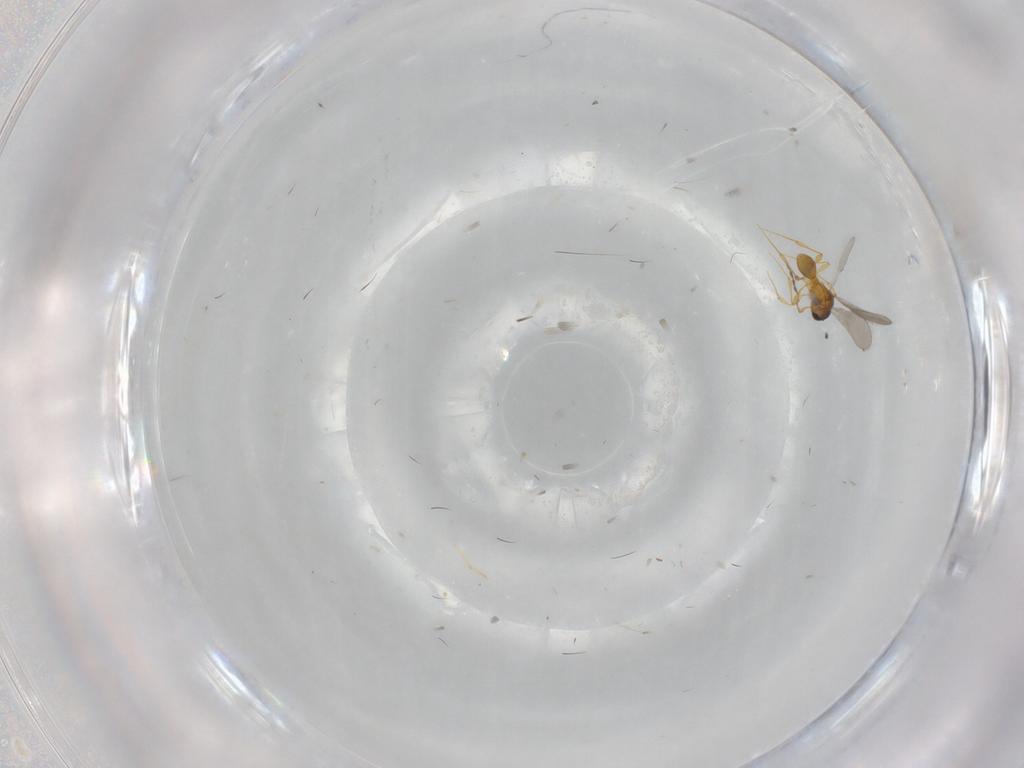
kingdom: Animalia
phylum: Arthropoda
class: Insecta
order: Hymenoptera
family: Platygastridae
